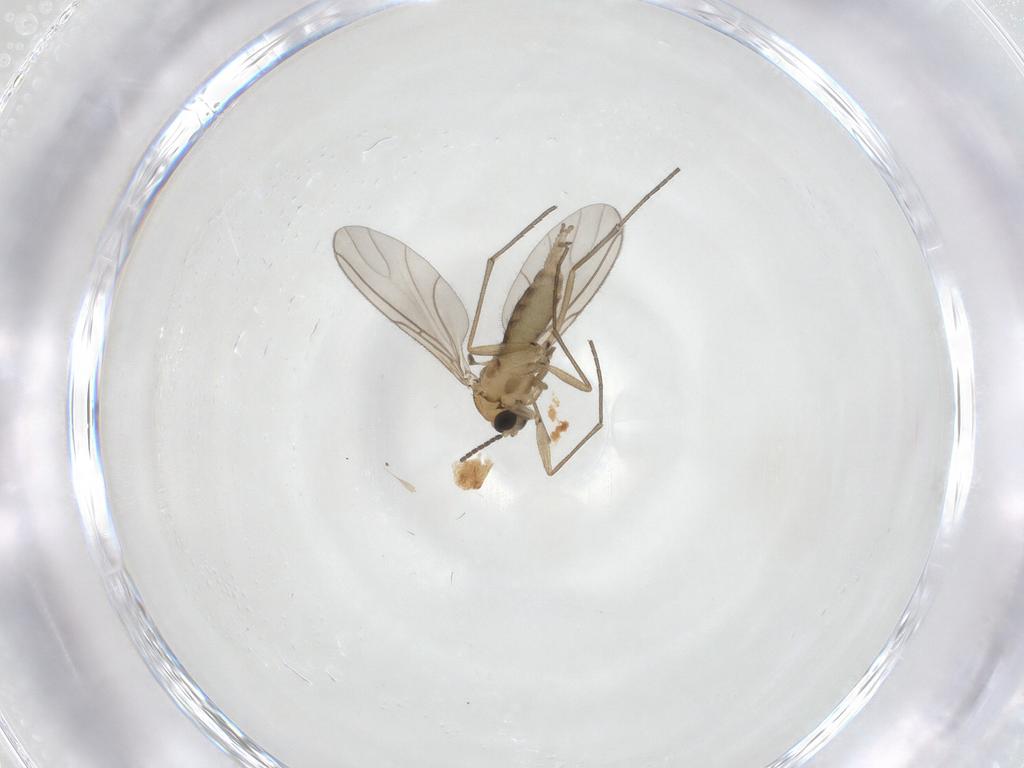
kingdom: Animalia
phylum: Arthropoda
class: Insecta
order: Diptera
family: Sciaridae
